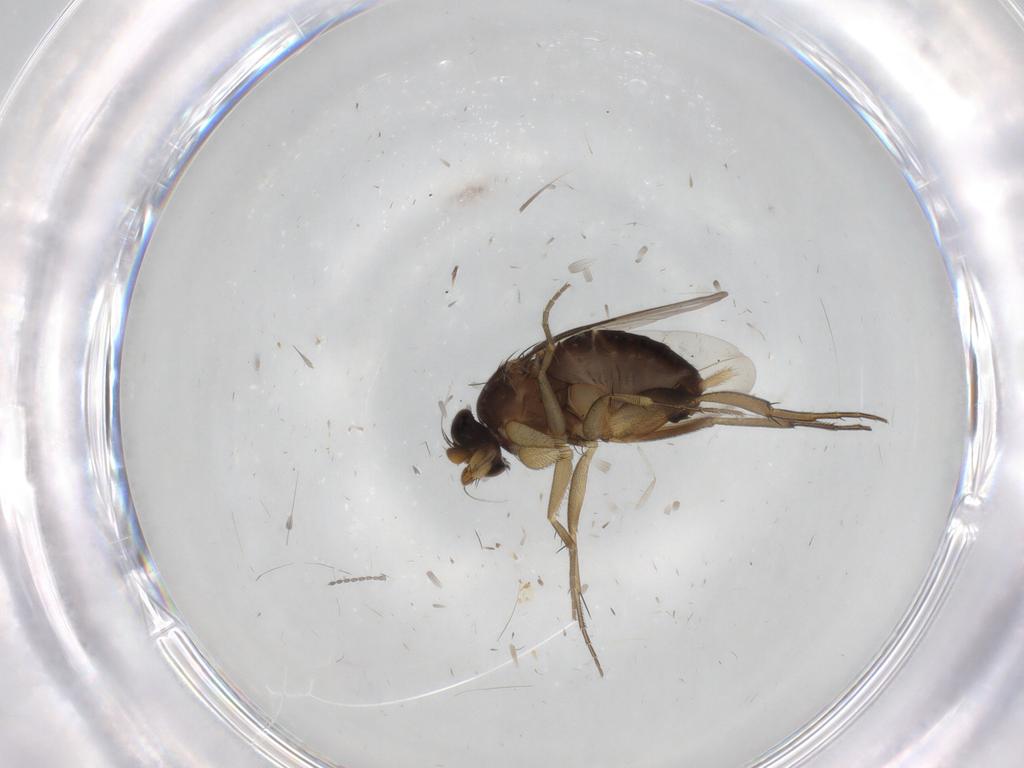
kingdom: Animalia
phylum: Arthropoda
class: Insecta
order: Diptera
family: Phoridae
